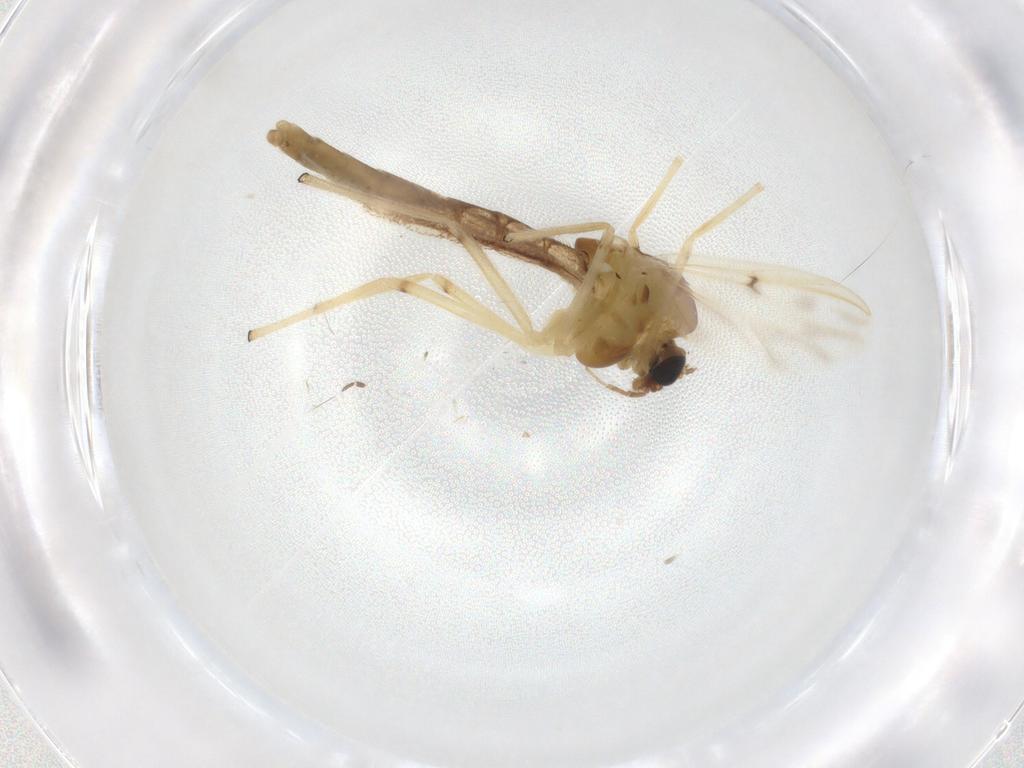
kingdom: Animalia
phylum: Arthropoda
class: Insecta
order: Diptera
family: Chironomidae
